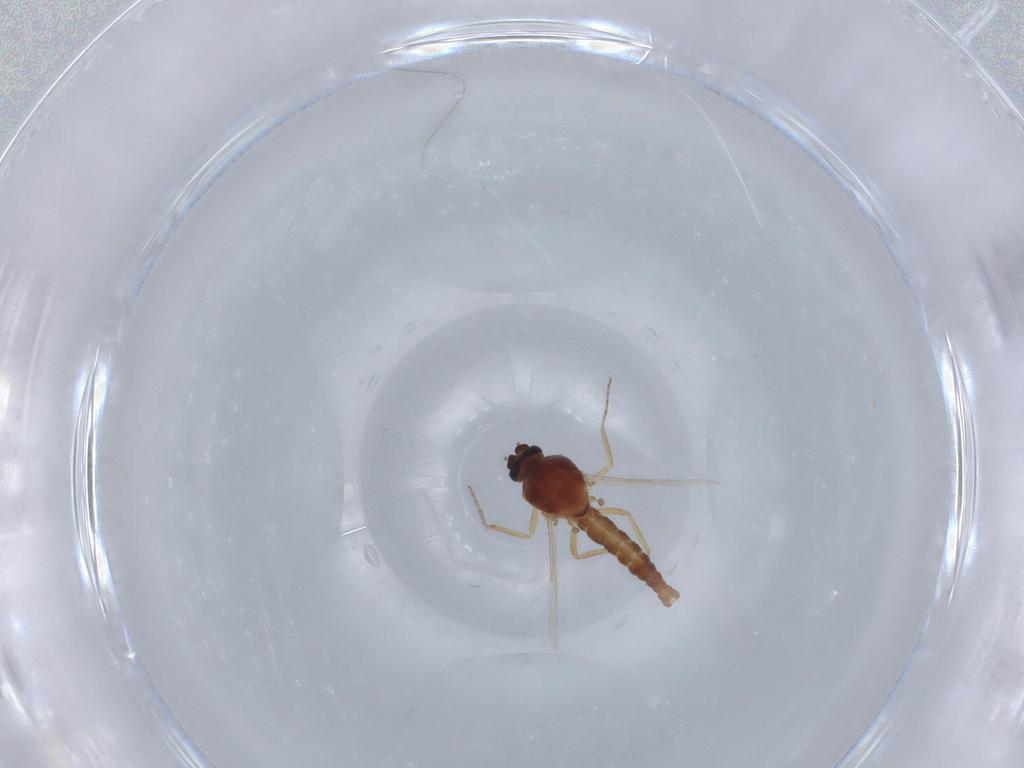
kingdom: Animalia
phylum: Arthropoda
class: Insecta
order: Diptera
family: Ceratopogonidae
